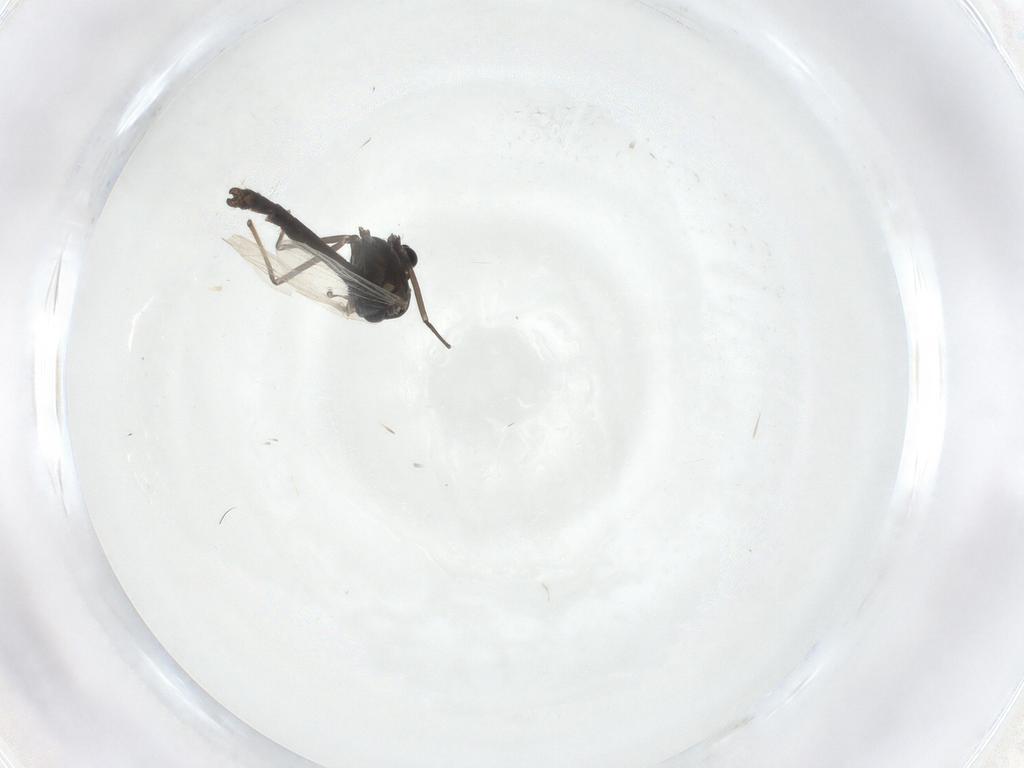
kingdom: Animalia
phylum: Arthropoda
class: Insecta
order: Diptera
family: Chironomidae
